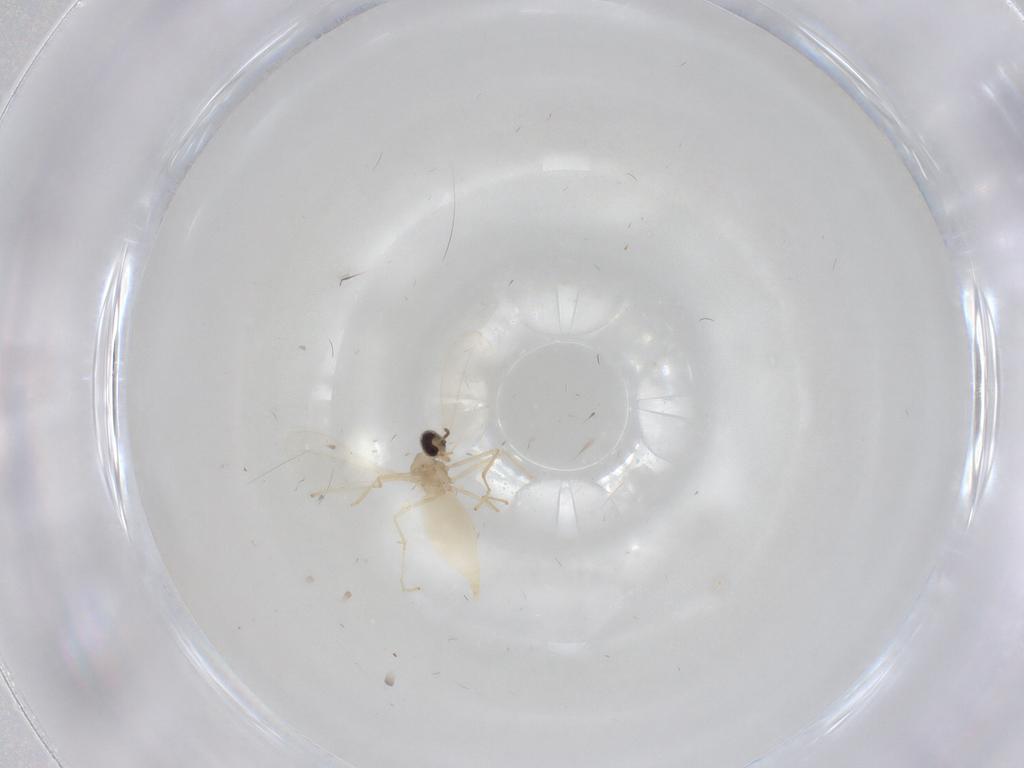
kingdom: Animalia
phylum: Arthropoda
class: Insecta
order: Diptera
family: Cecidomyiidae
